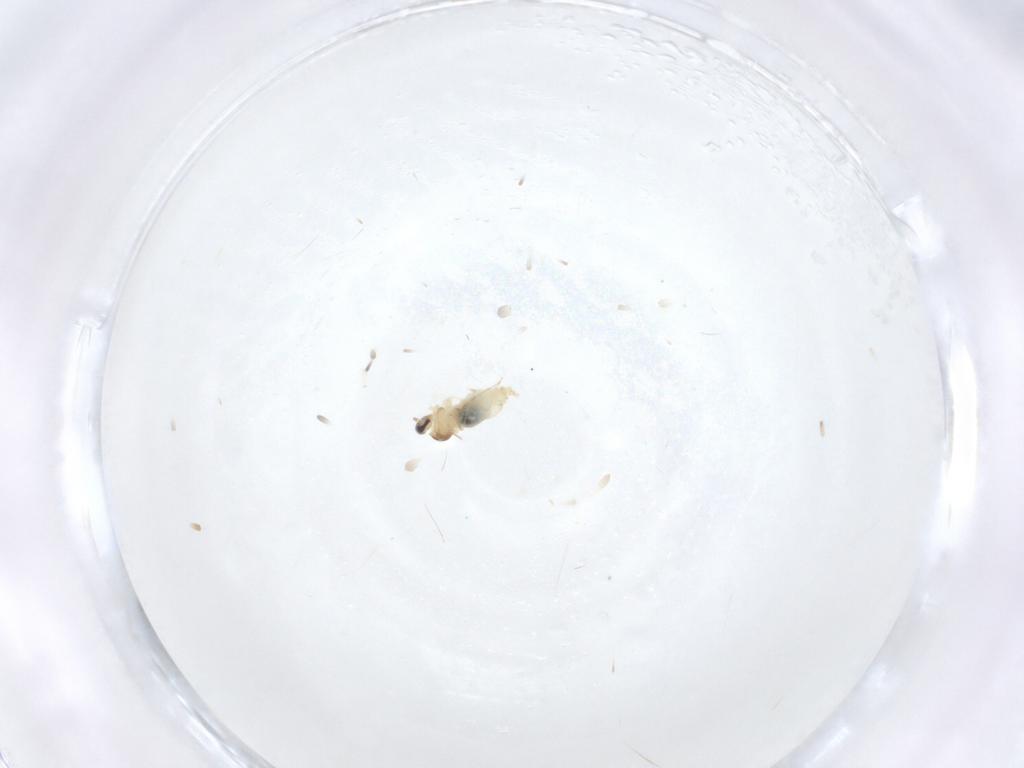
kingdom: Animalia
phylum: Arthropoda
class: Insecta
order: Diptera
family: Cecidomyiidae
